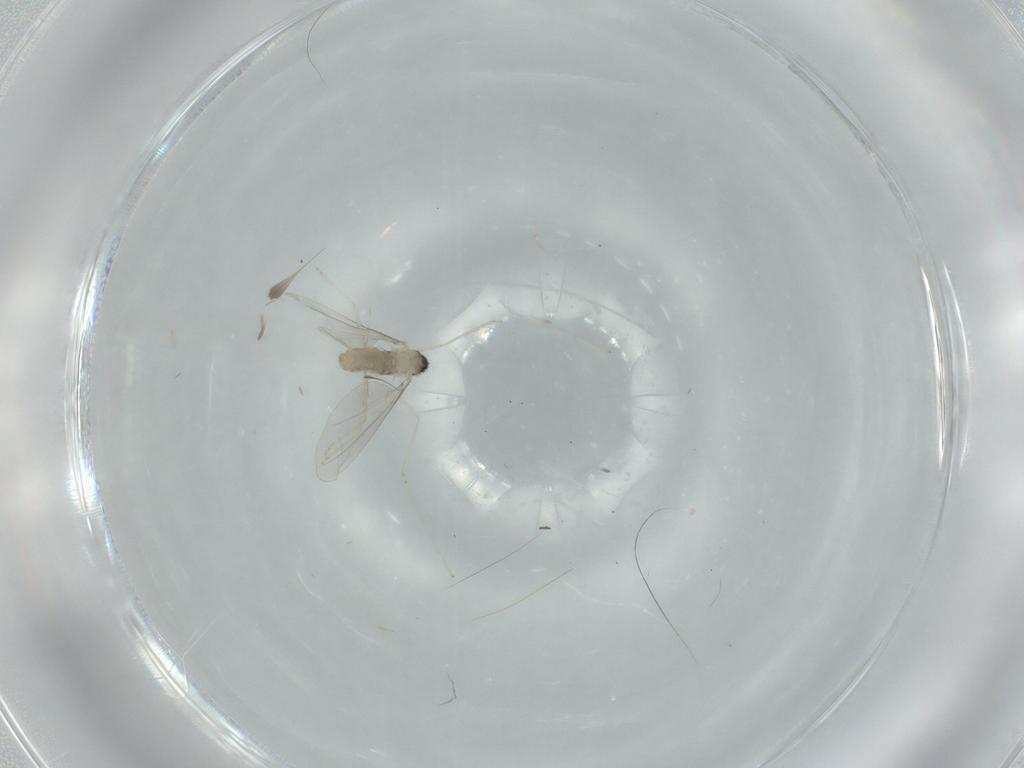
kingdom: Animalia
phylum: Arthropoda
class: Insecta
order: Diptera
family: Cecidomyiidae
